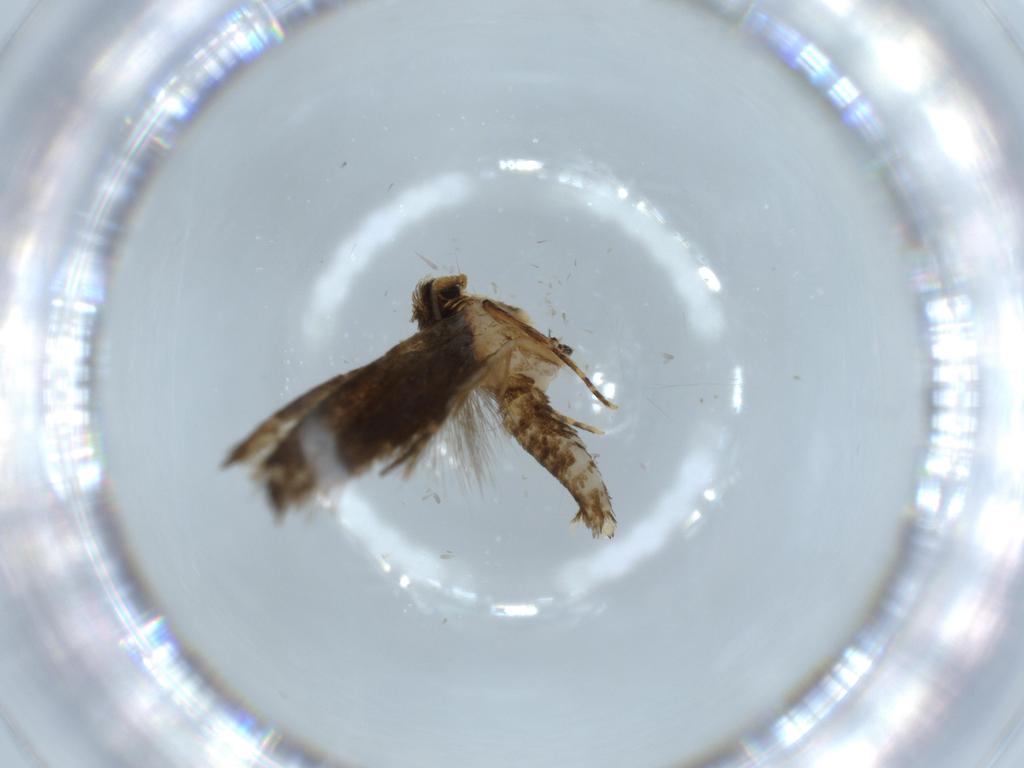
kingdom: Animalia
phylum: Arthropoda
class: Insecta
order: Lepidoptera
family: Tineidae
